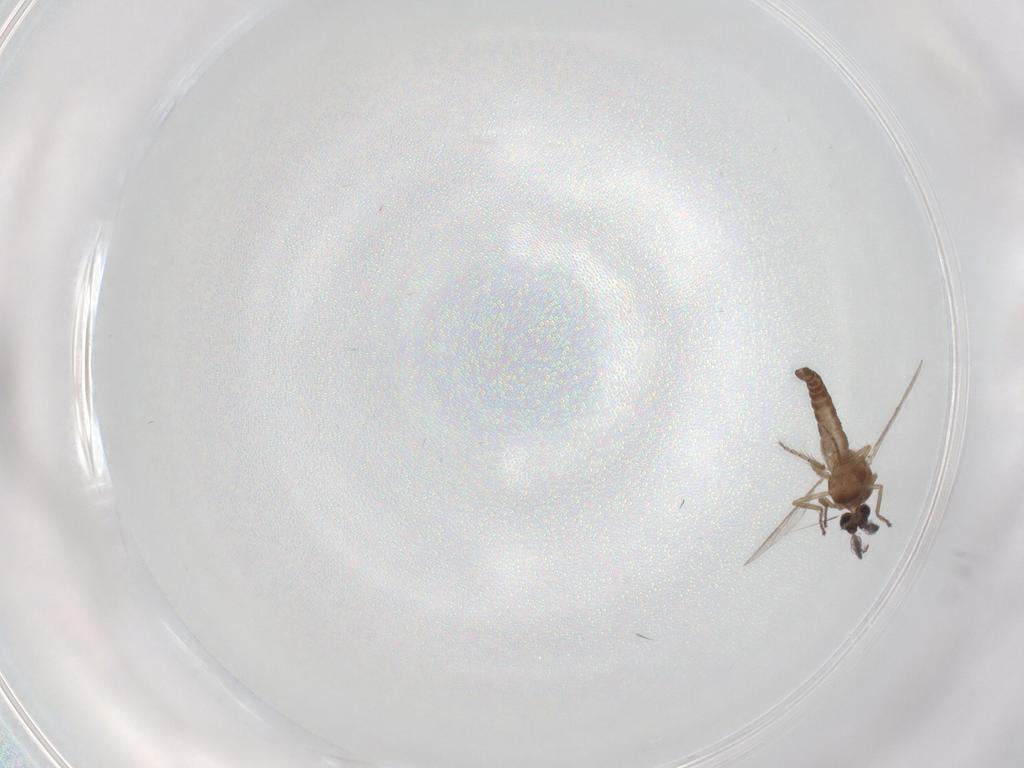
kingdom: Animalia
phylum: Arthropoda
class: Insecta
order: Diptera
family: Ceratopogonidae
